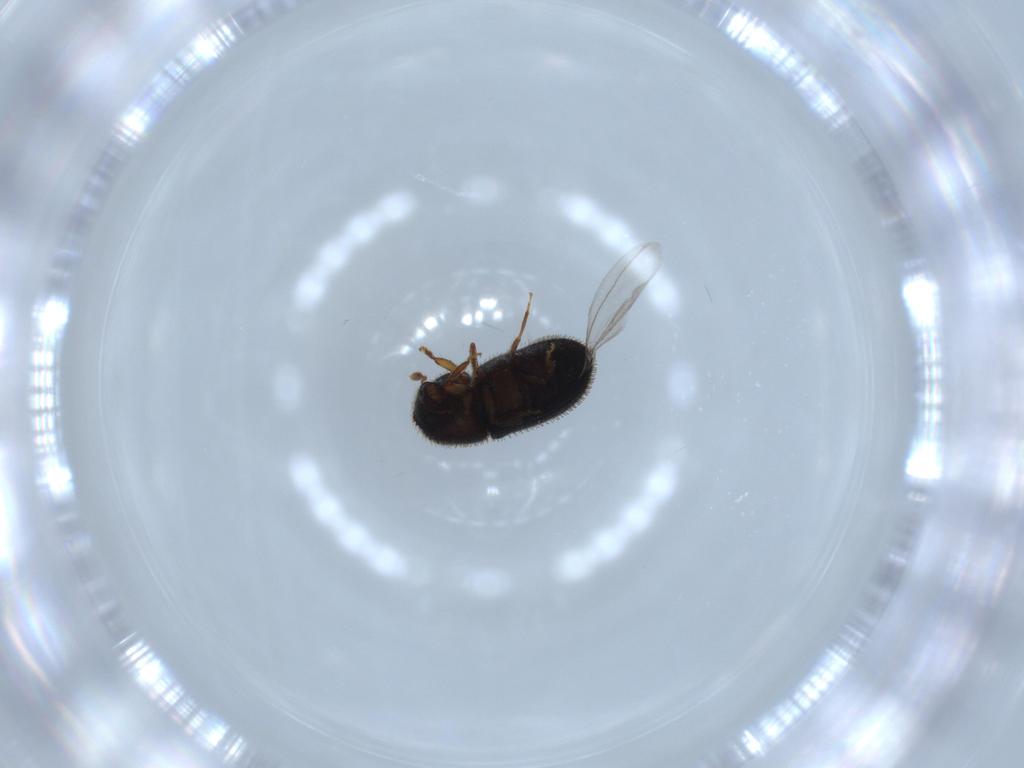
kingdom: Animalia
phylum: Arthropoda
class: Insecta
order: Coleoptera
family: Curculionidae
